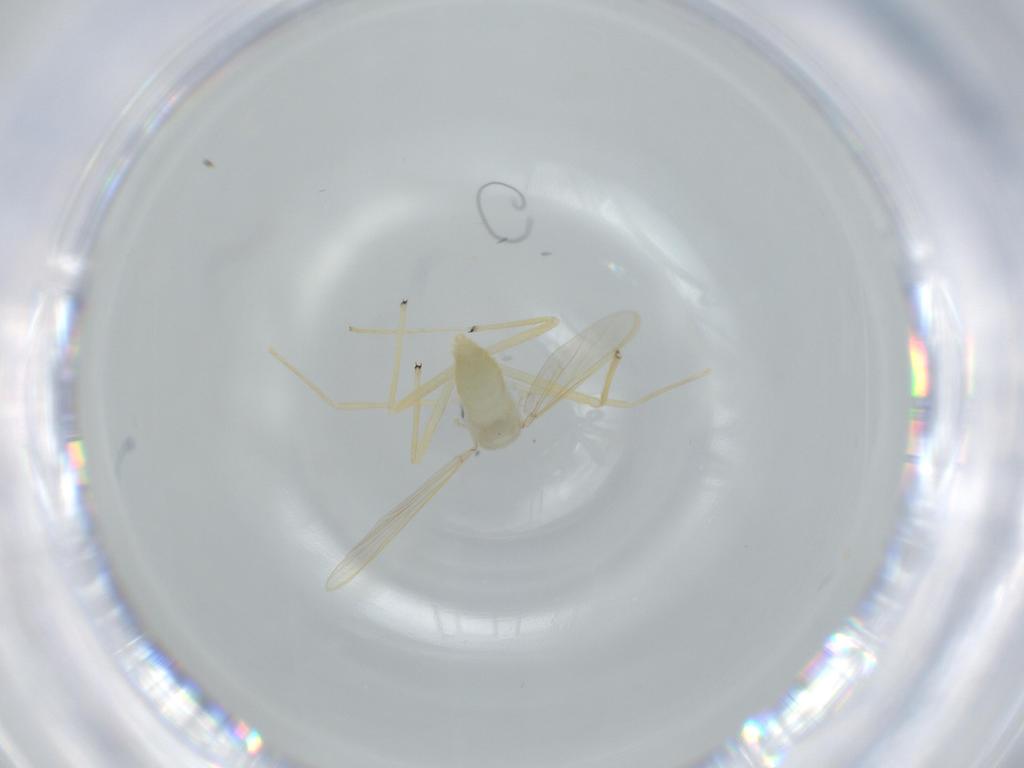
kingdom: Animalia
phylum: Arthropoda
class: Insecta
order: Diptera
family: Chironomidae
